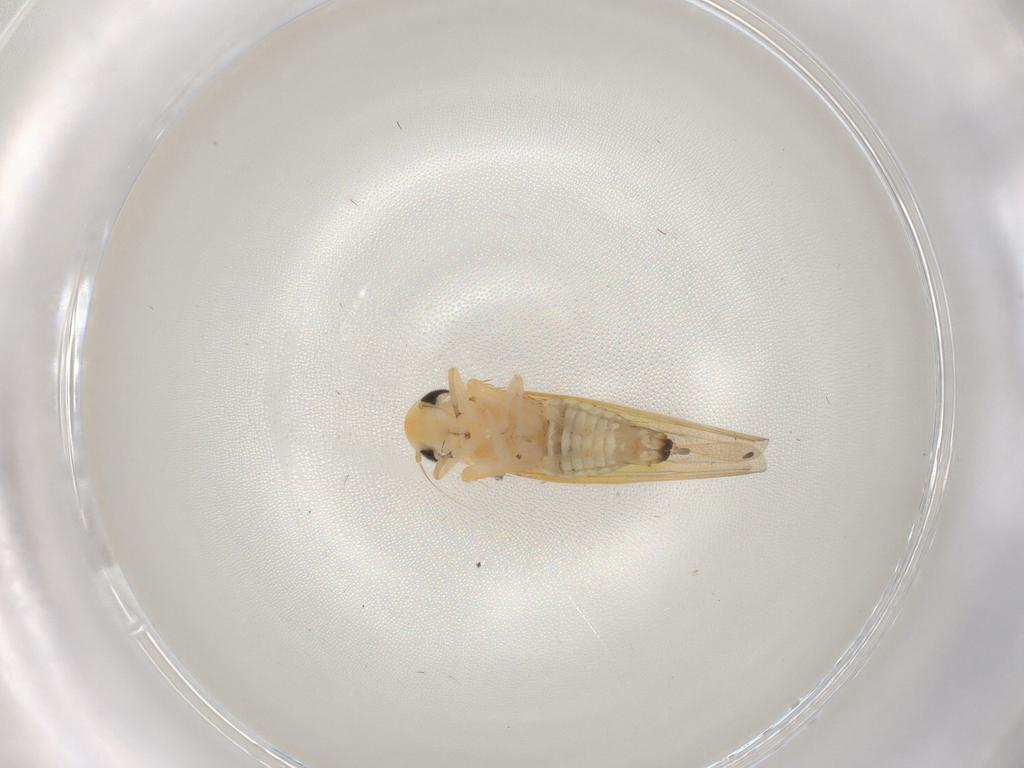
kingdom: Animalia
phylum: Arthropoda
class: Insecta
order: Hemiptera
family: Cicadellidae
